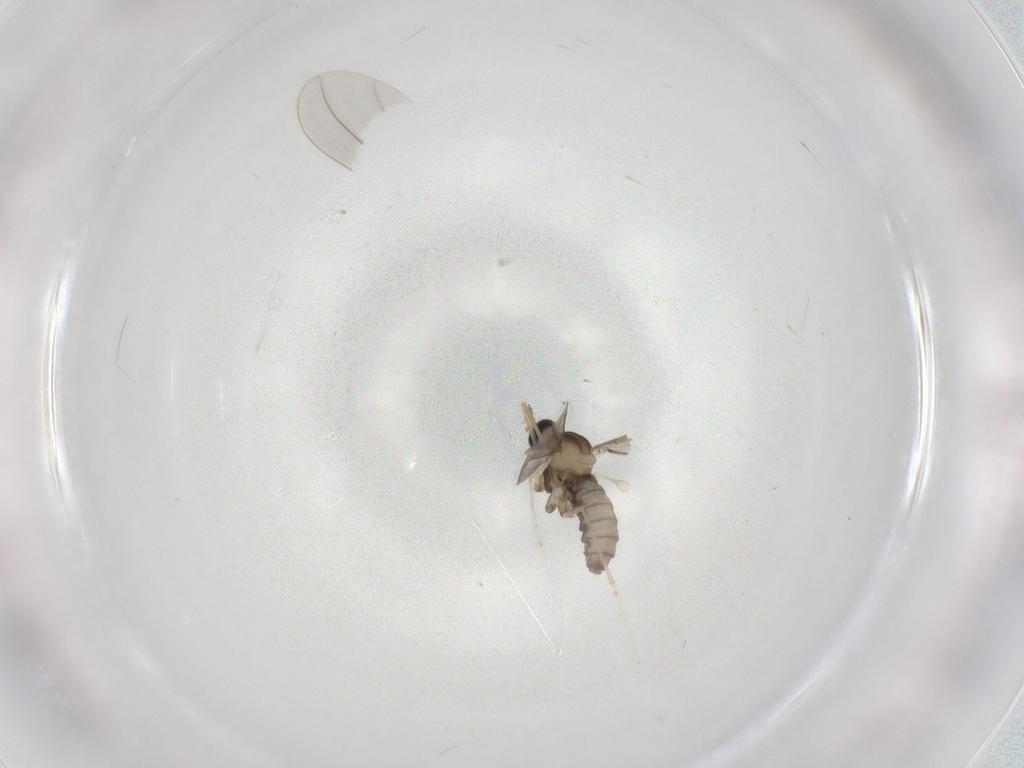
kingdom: Animalia
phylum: Arthropoda
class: Insecta
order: Diptera
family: Cecidomyiidae
